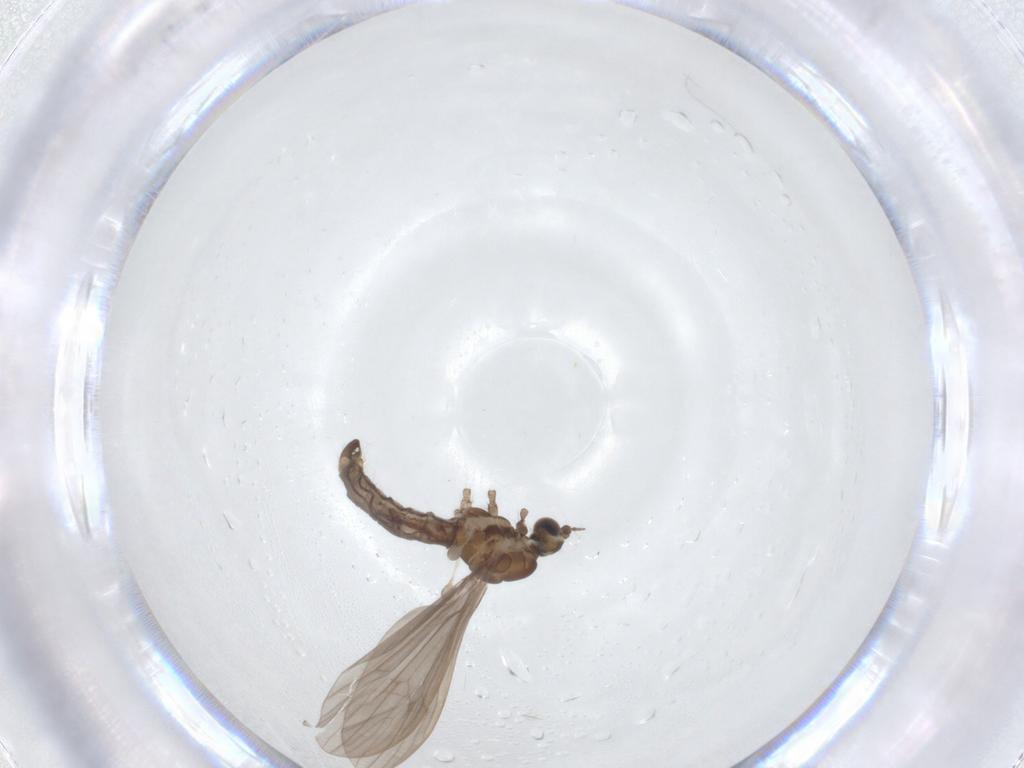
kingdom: Animalia
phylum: Arthropoda
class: Insecta
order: Diptera
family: Limoniidae
